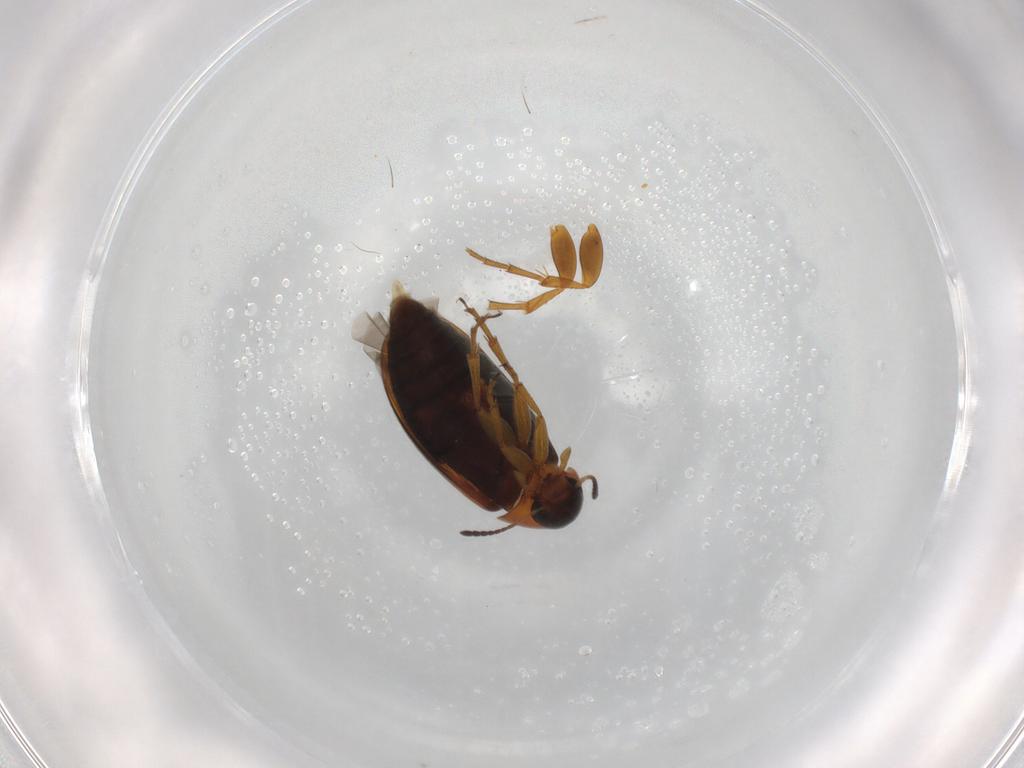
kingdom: Animalia
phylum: Arthropoda
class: Insecta
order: Coleoptera
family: Scraptiidae
